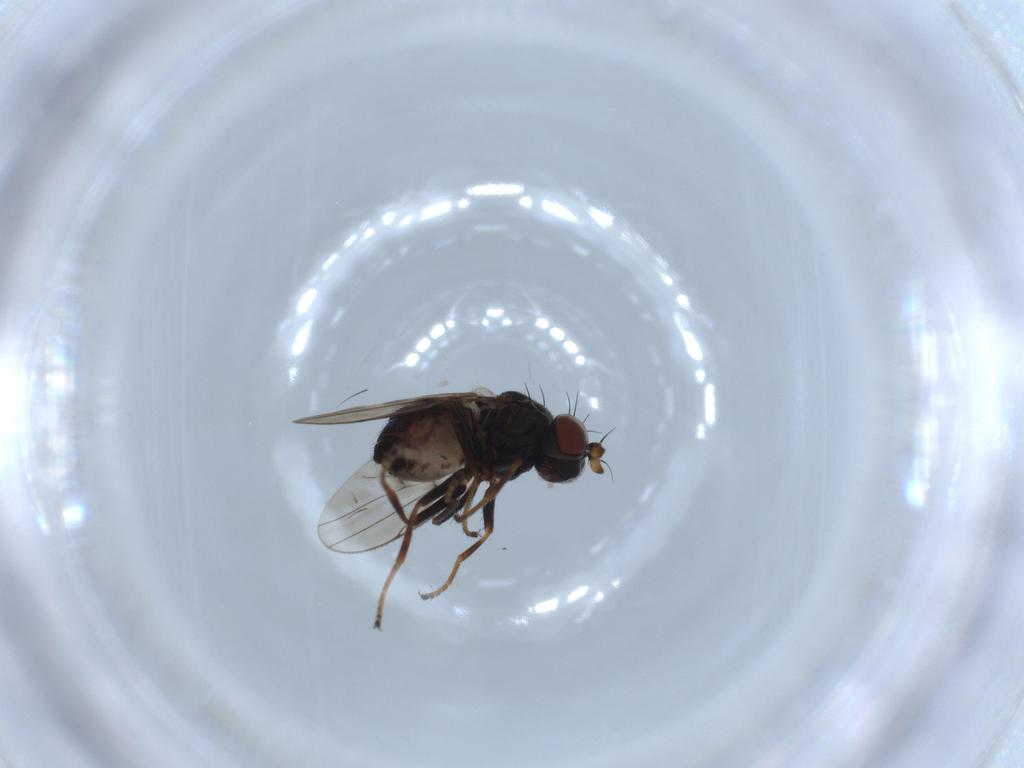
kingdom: Animalia
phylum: Arthropoda
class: Insecta
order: Diptera
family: Ephydridae
